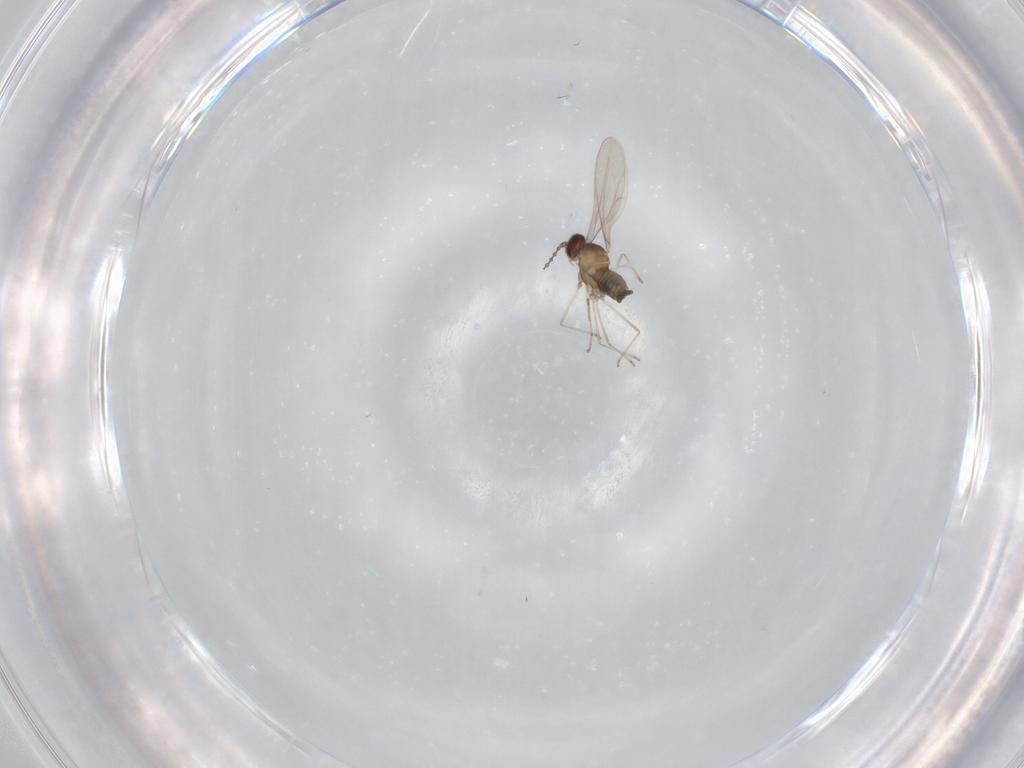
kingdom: Animalia
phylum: Arthropoda
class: Insecta
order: Diptera
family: Cecidomyiidae
